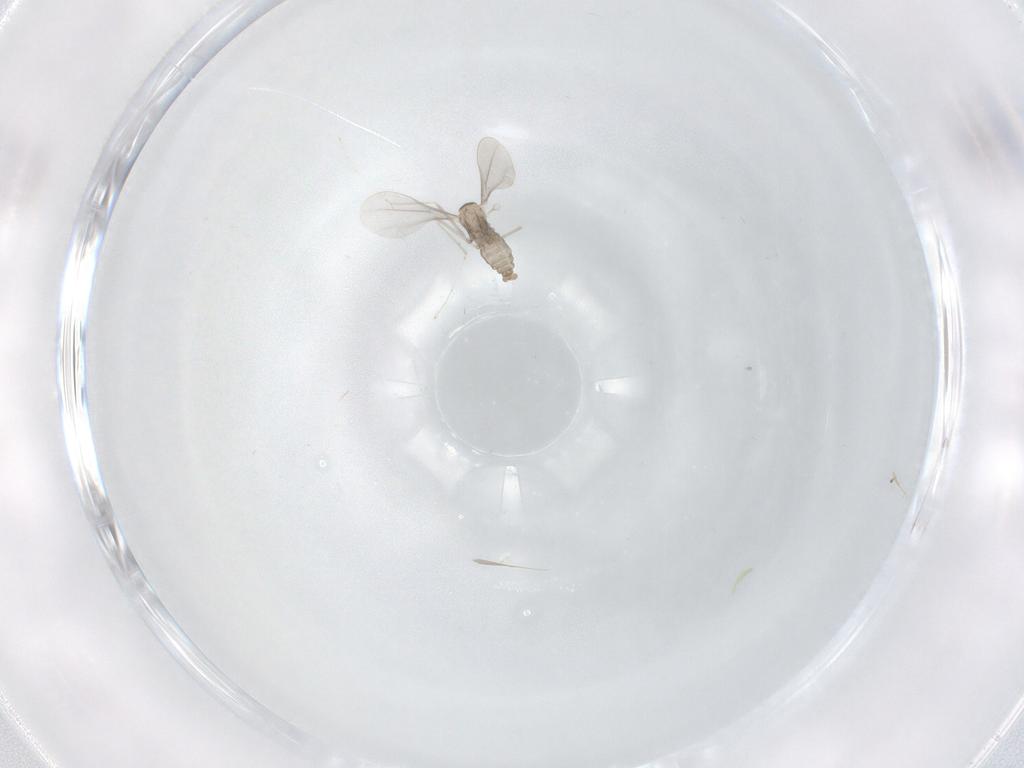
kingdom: Animalia
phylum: Arthropoda
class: Insecta
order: Diptera
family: Cecidomyiidae
